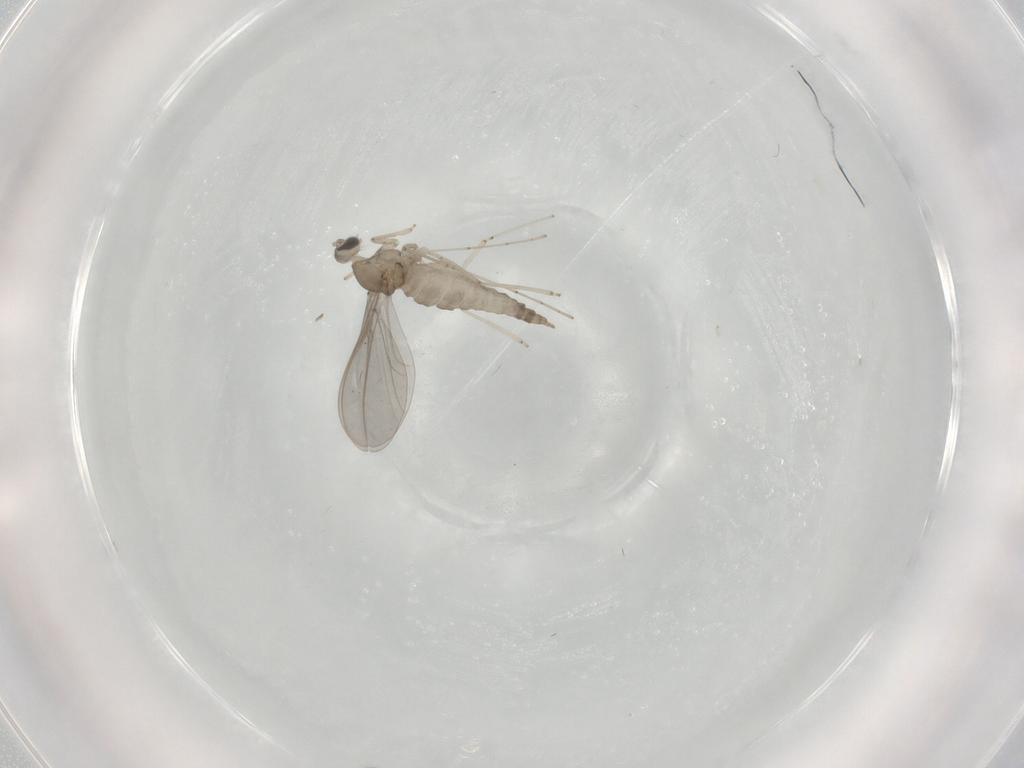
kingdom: Animalia
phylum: Arthropoda
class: Insecta
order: Diptera
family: Cecidomyiidae
